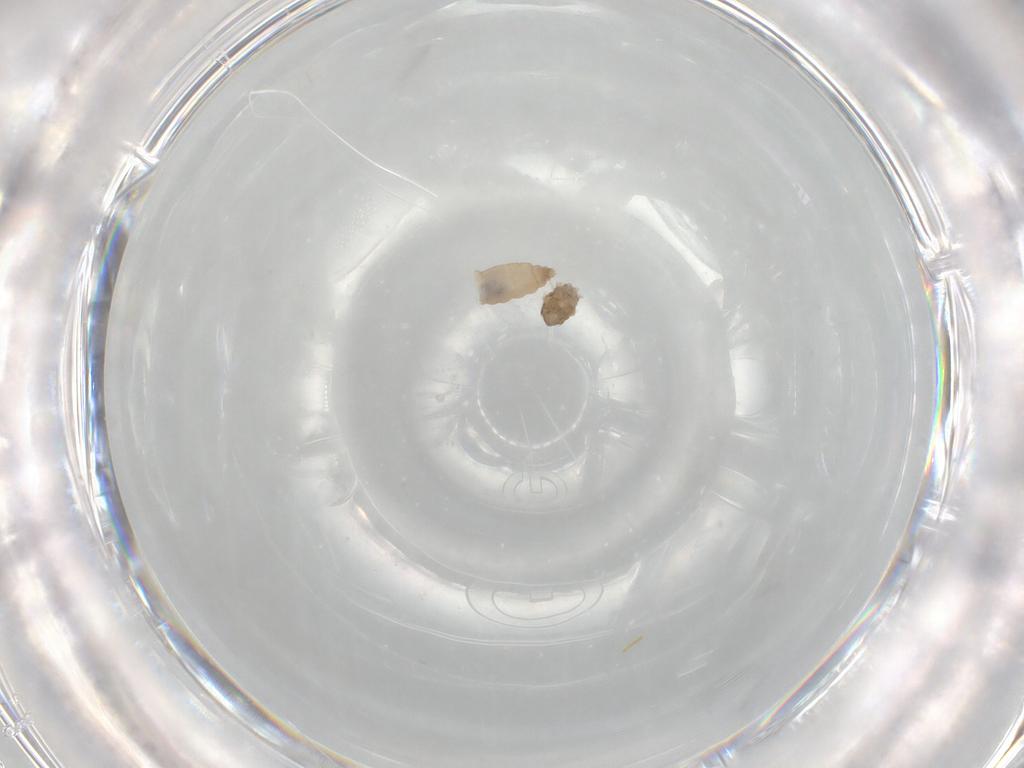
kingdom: Animalia
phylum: Arthropoda
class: Insecta
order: Diptera
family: Cecidomyiidae
